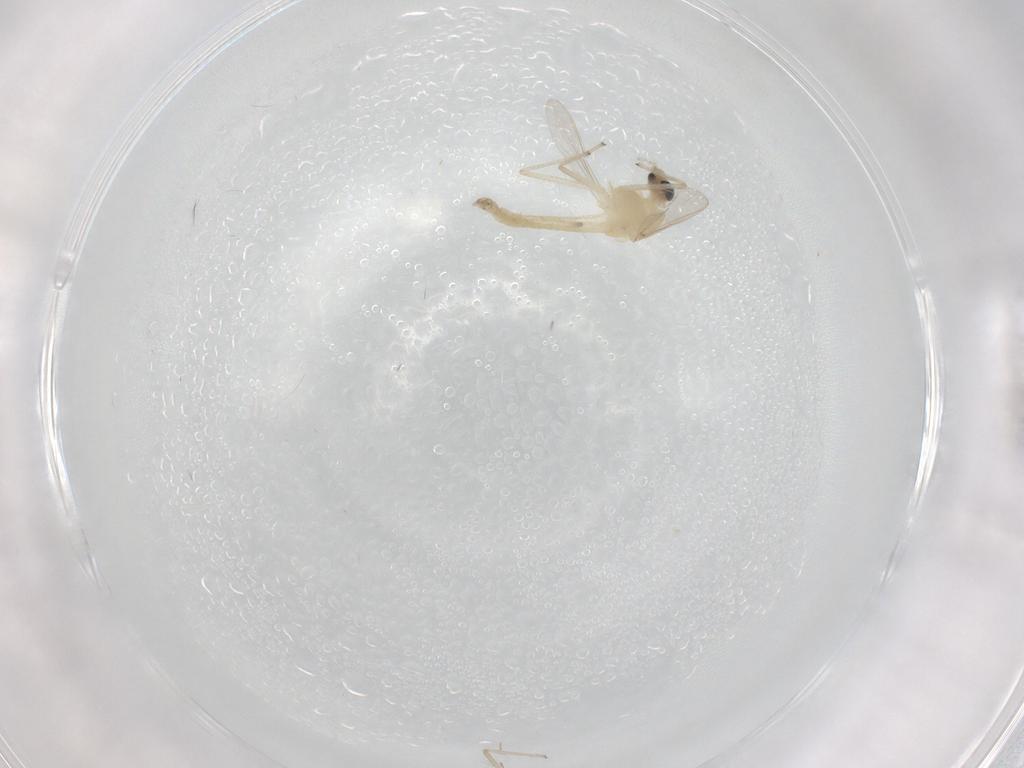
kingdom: Animalia
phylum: Arthropoda
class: Insecta
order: Diptera
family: Chironomidae
